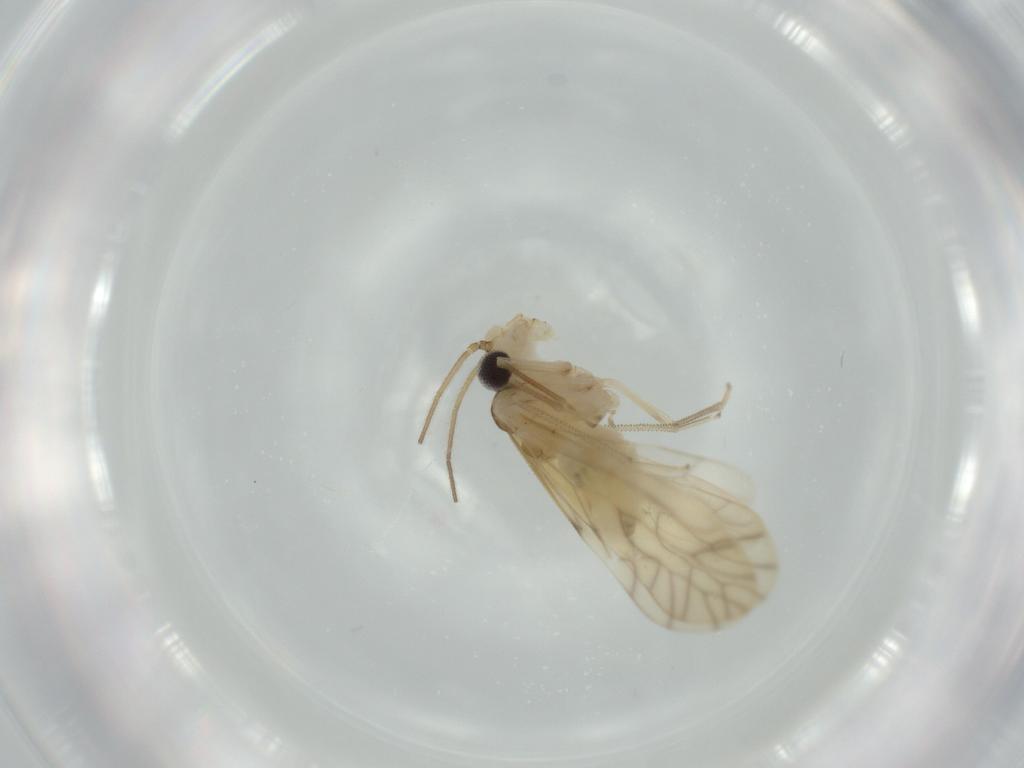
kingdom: Animalia
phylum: Arthropoda
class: Insecta
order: Psocodea
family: Caeciliusidae
